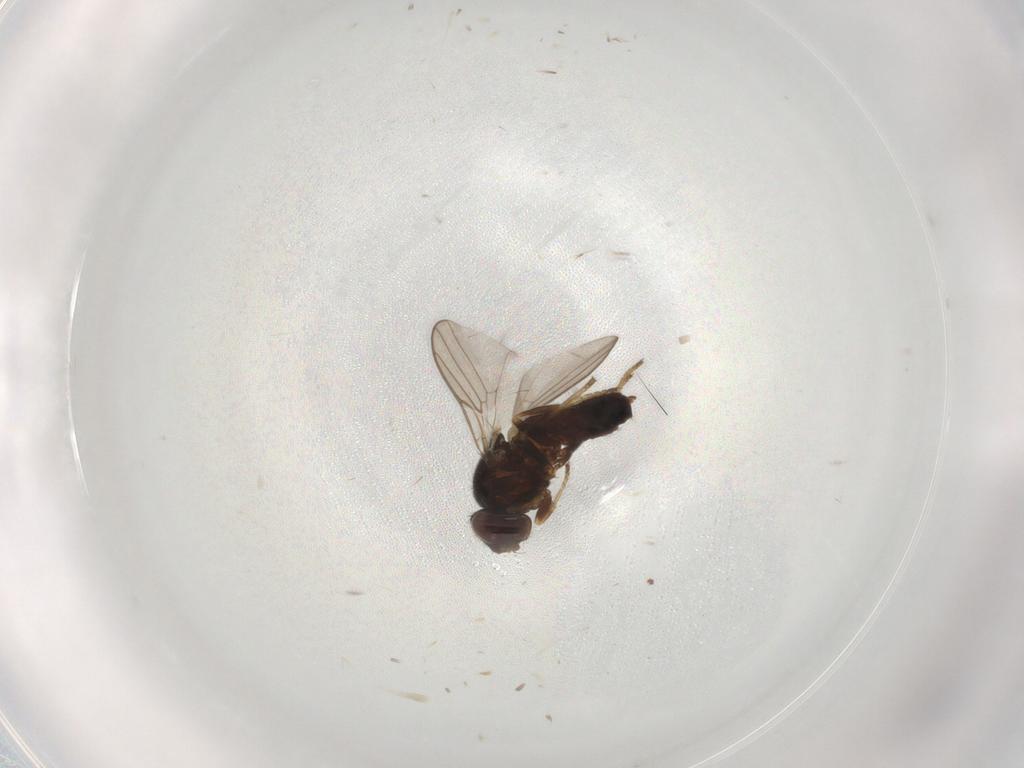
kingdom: Animalia
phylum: Arthropoda
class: Insecta
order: Diptera
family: Chloropidae
